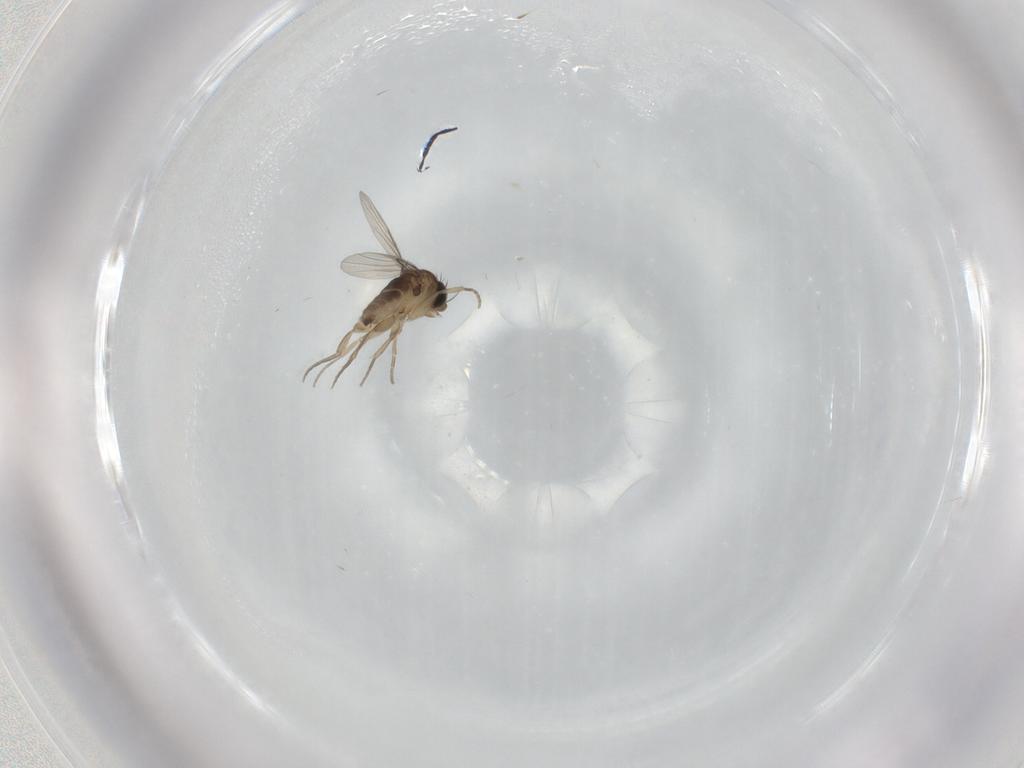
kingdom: Animalia
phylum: Arthropoda
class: Insecta
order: Diptera
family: Phoridae
